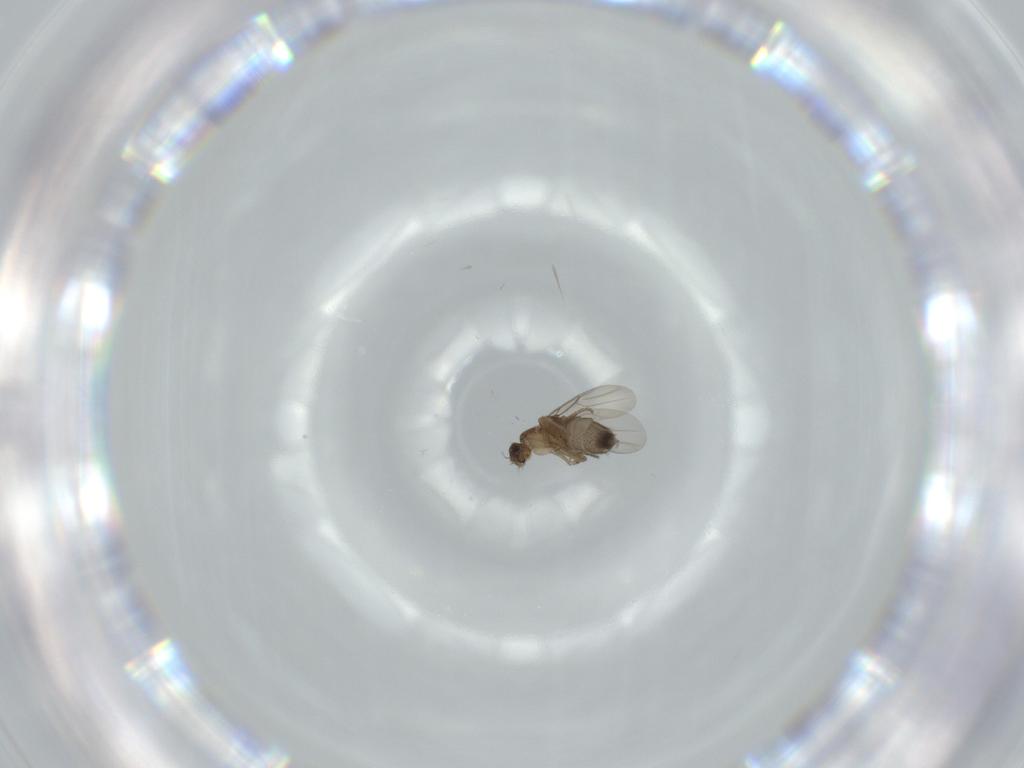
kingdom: Animalia
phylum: Arthropoda
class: Insecta
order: Diptera
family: Phoridae
